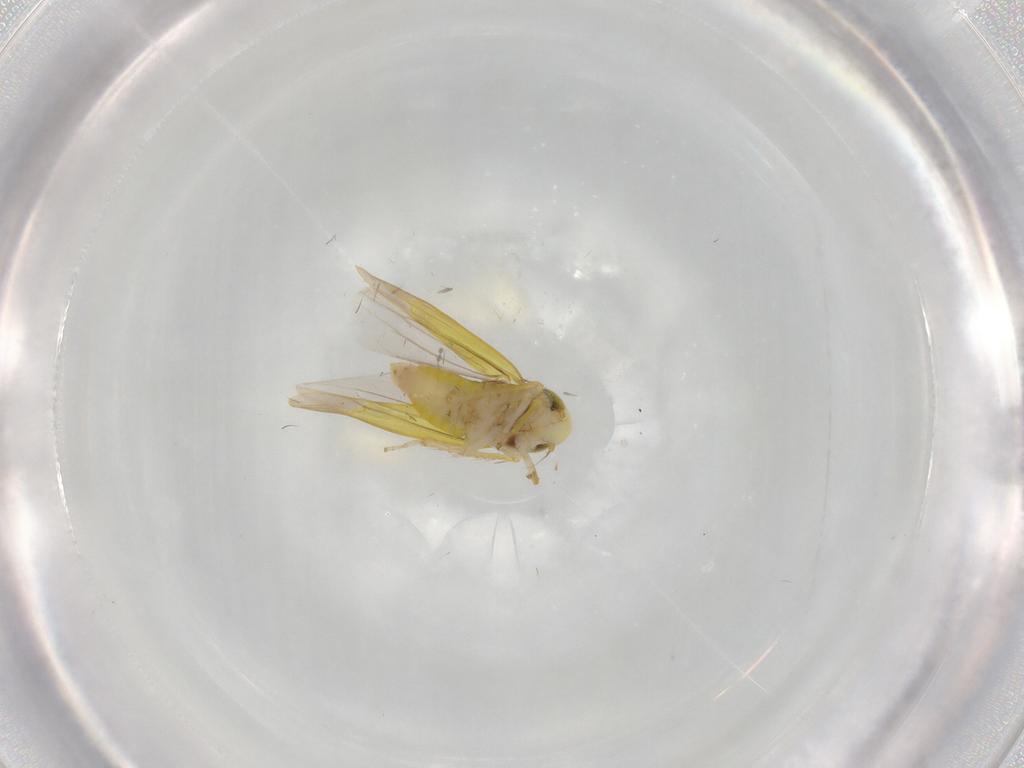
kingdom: Animalia
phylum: Arthropoda
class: Insecta
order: Hemiptera
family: Cicadellidae
